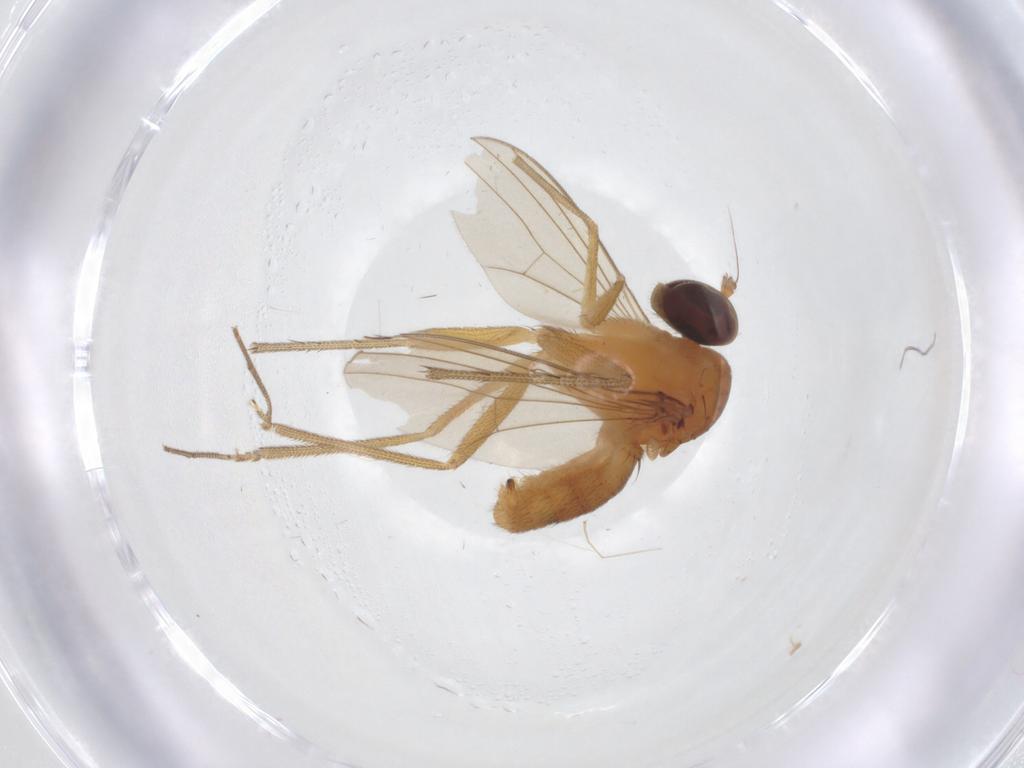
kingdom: Animalia
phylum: Arthropoda
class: Insecta
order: Diptera
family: Dolichopodidae
